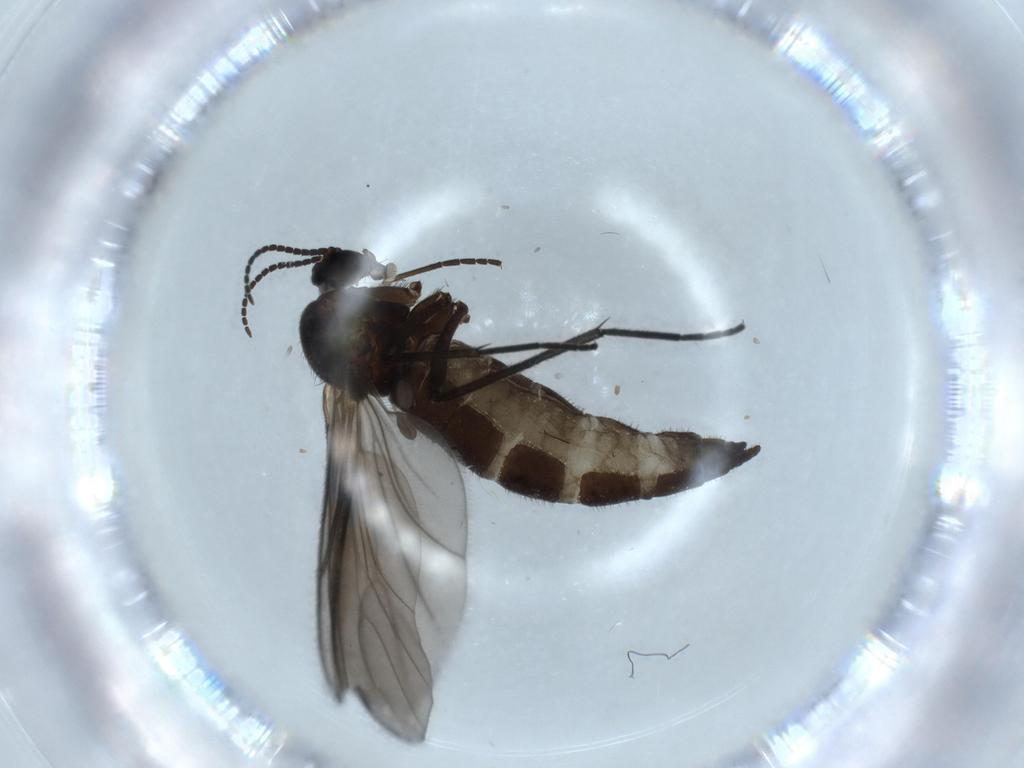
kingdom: Animalia
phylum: Arthropoda
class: Insecta
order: Diptera
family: Sciaridae
